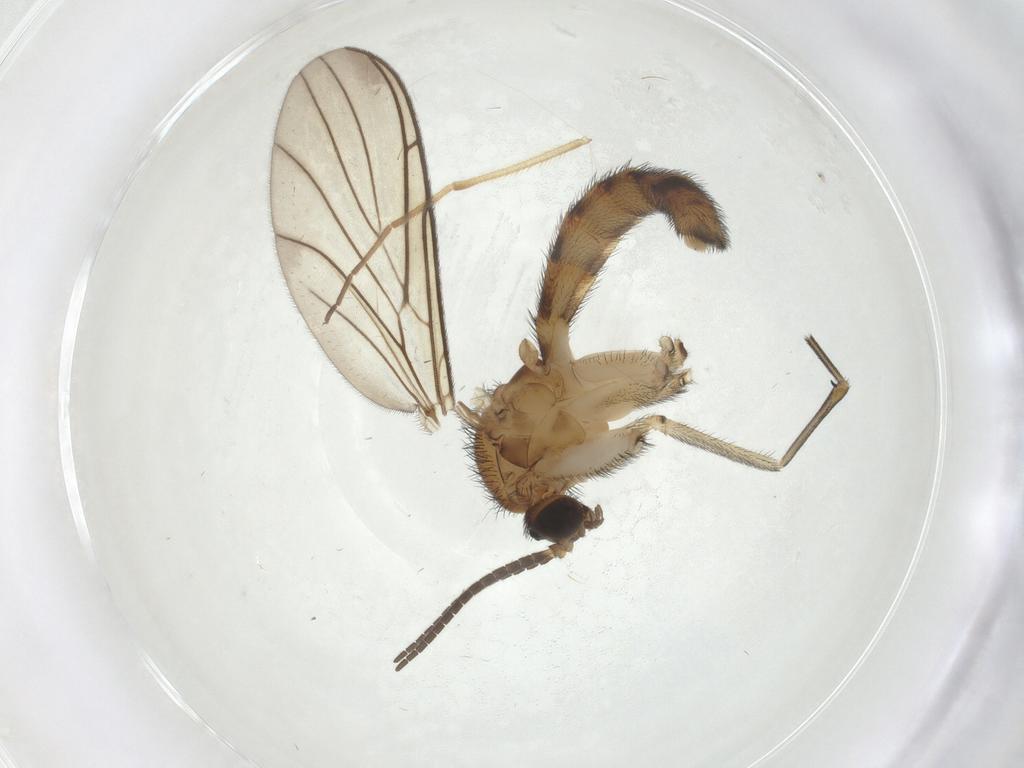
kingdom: Animalia
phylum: Arthropoda
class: Insecta
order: Diptera
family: Keroplatidae
